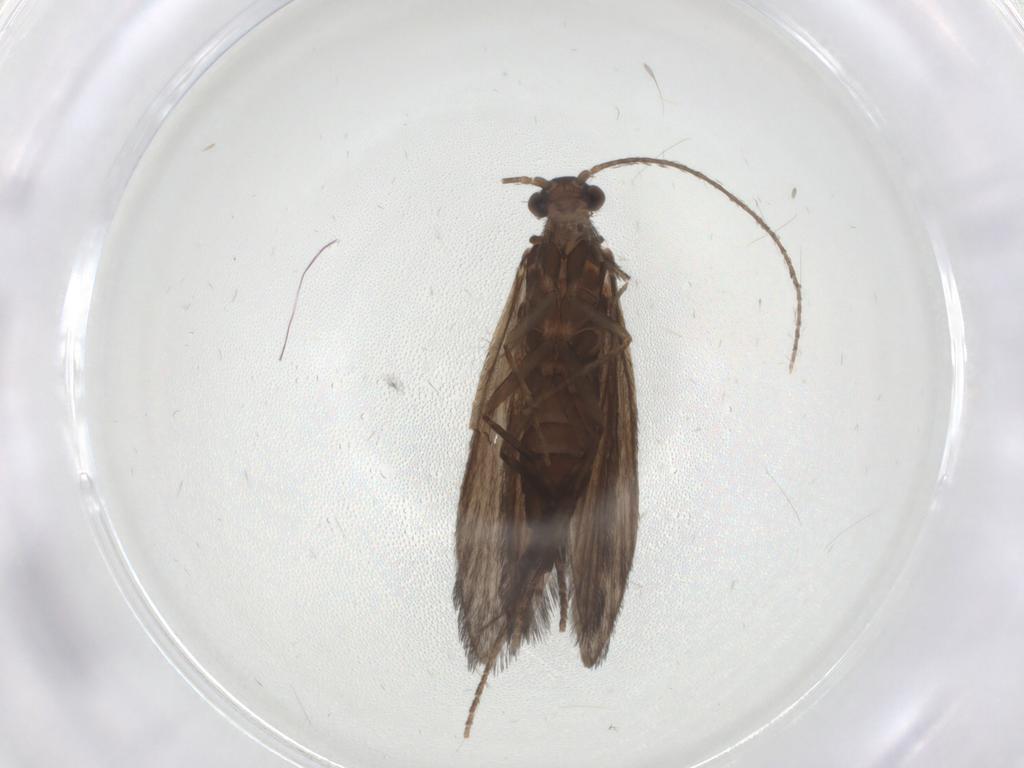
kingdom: Animalia
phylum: Arthropoda
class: Insecta
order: Trichoptera
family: Xiphocentronidae
